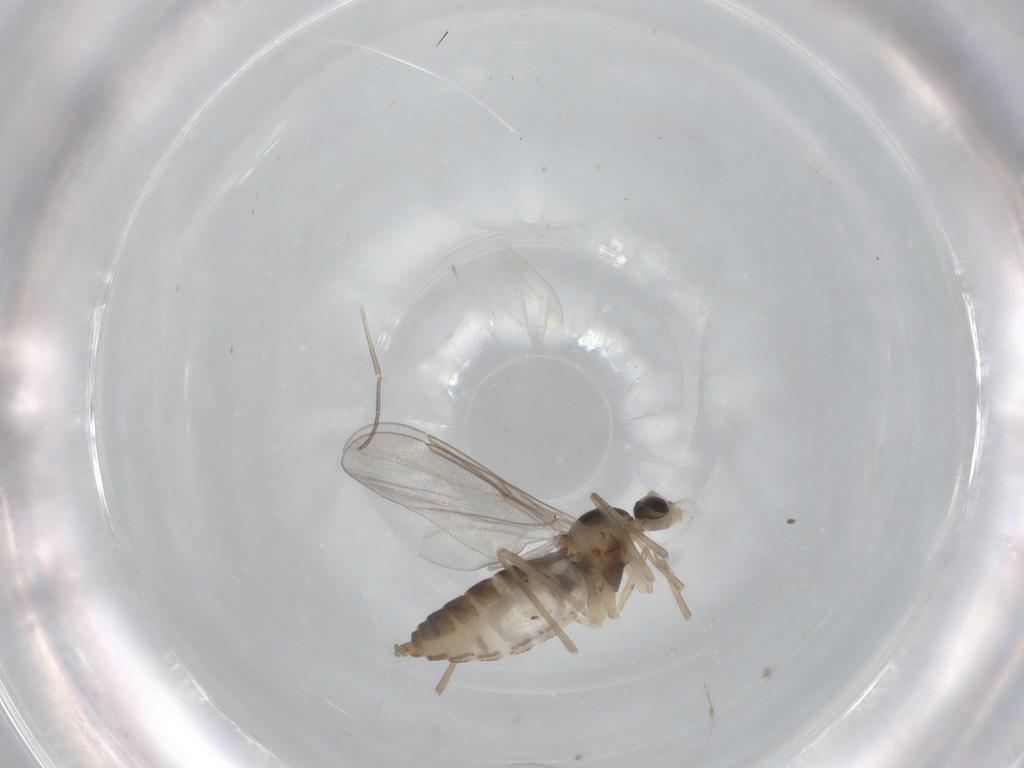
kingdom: Animalia
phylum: Arthropoda
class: Insecta
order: Diptera
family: Cecidomyiidae
